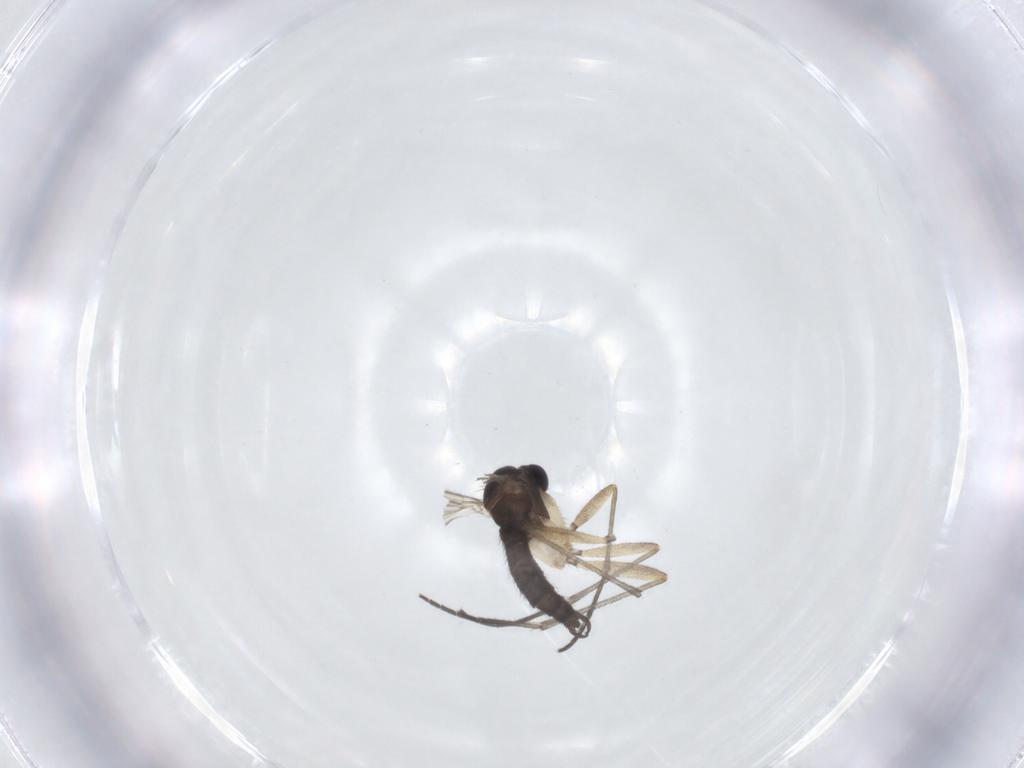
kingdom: Animalia
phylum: Arthropoda
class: Insecta
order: Diptera
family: Sciaridae
